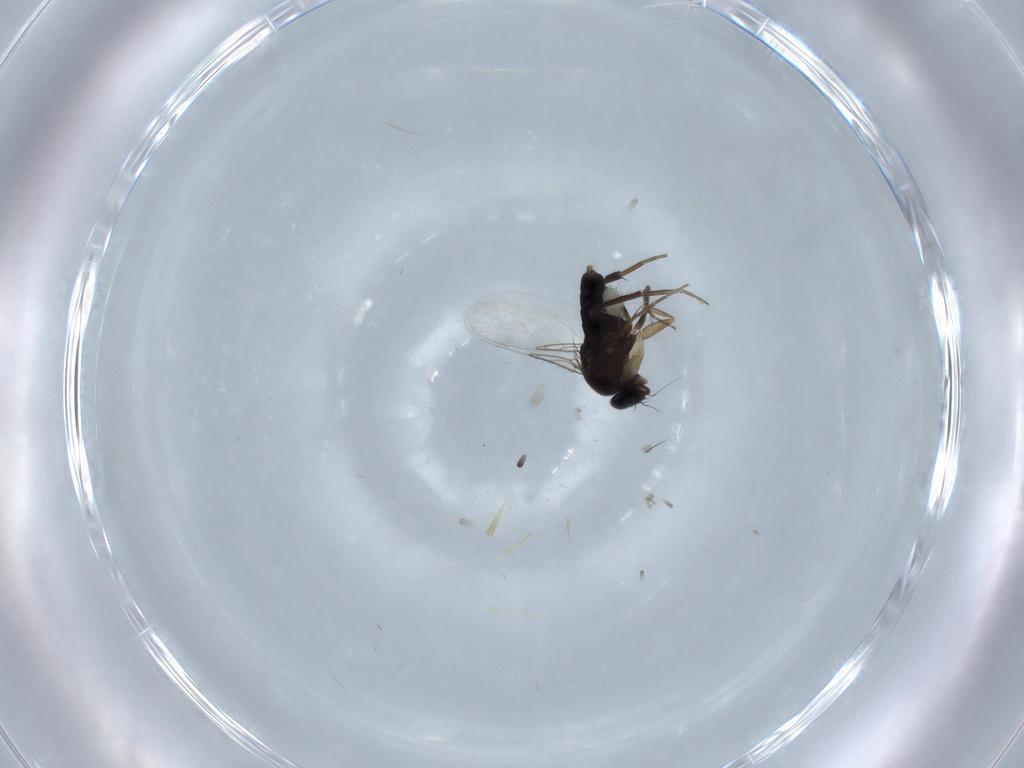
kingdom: Animalia
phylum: Arthropoda
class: Insecta
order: Diptera
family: Phoridae
